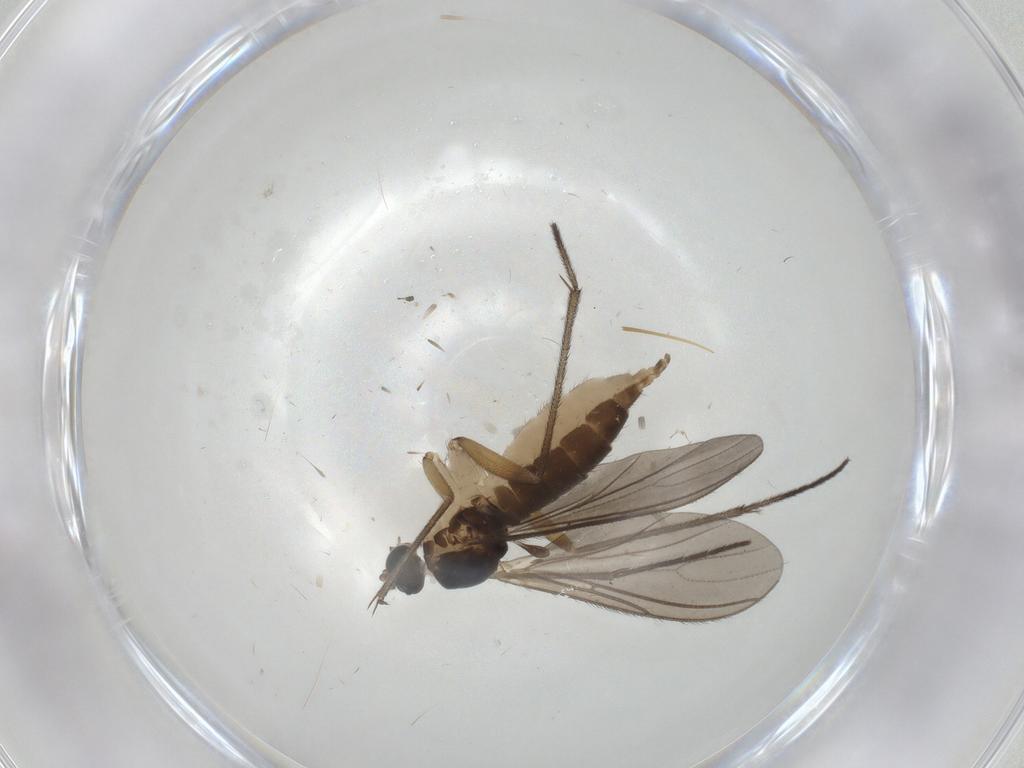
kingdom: Animalia
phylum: Arthropoda
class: Insecta
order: Diptera
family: Sciaridae
